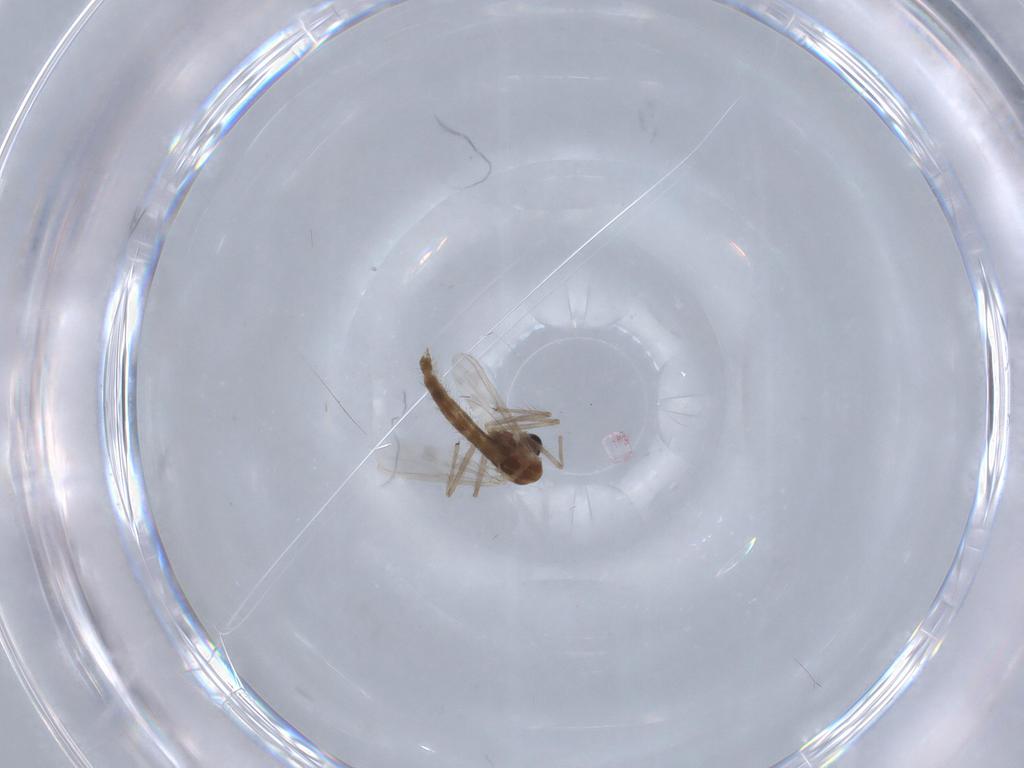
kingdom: Animalia
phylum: Arthropoda
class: Insecta
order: Diptera
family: Chironomidae
